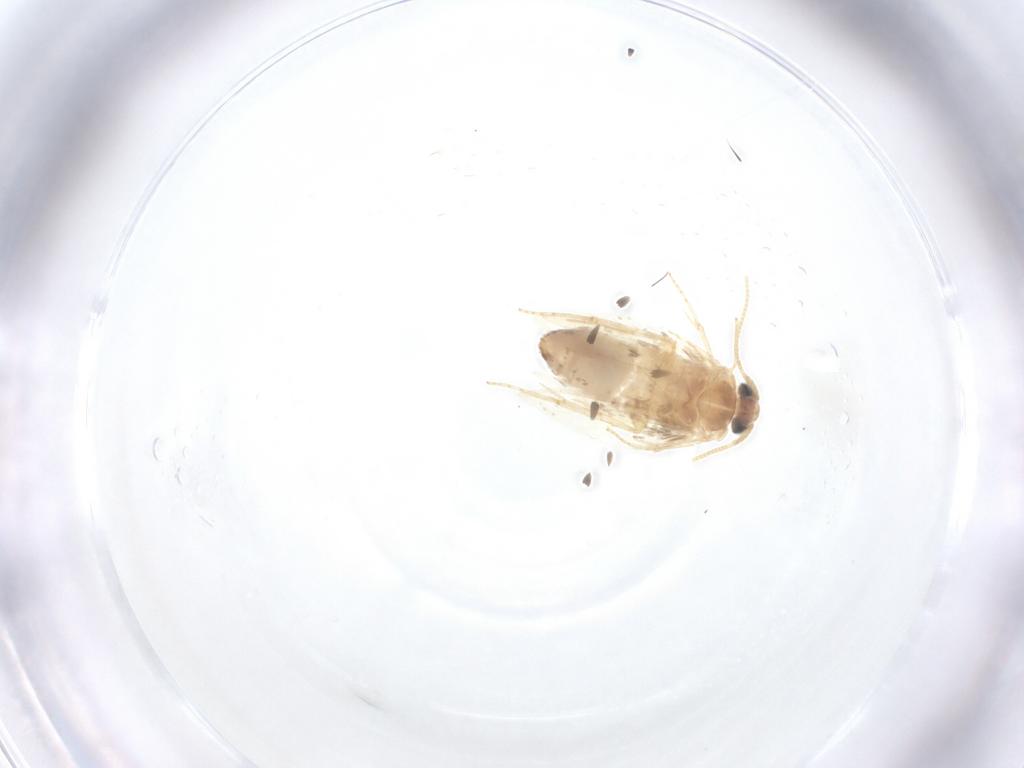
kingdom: Animalia
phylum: Arthropoda
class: Insecta
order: Lepidoptera
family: Nepticulidae
